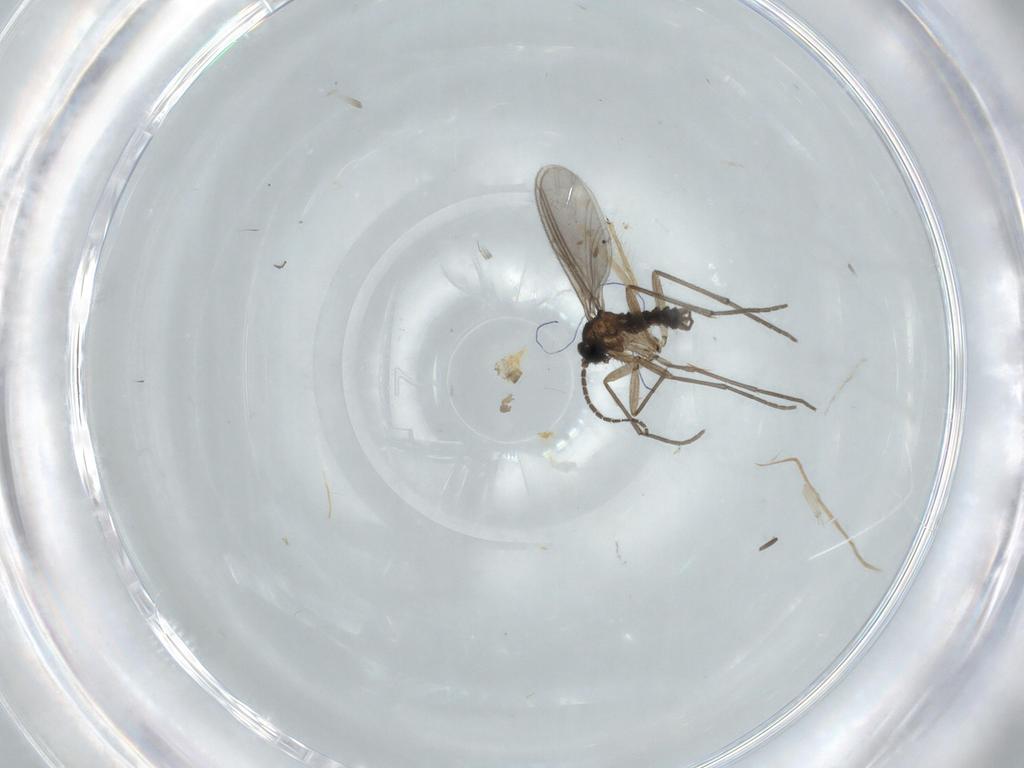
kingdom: Animalia
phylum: Arthropoda
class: Insecta
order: Diptera
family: Sciaridae
